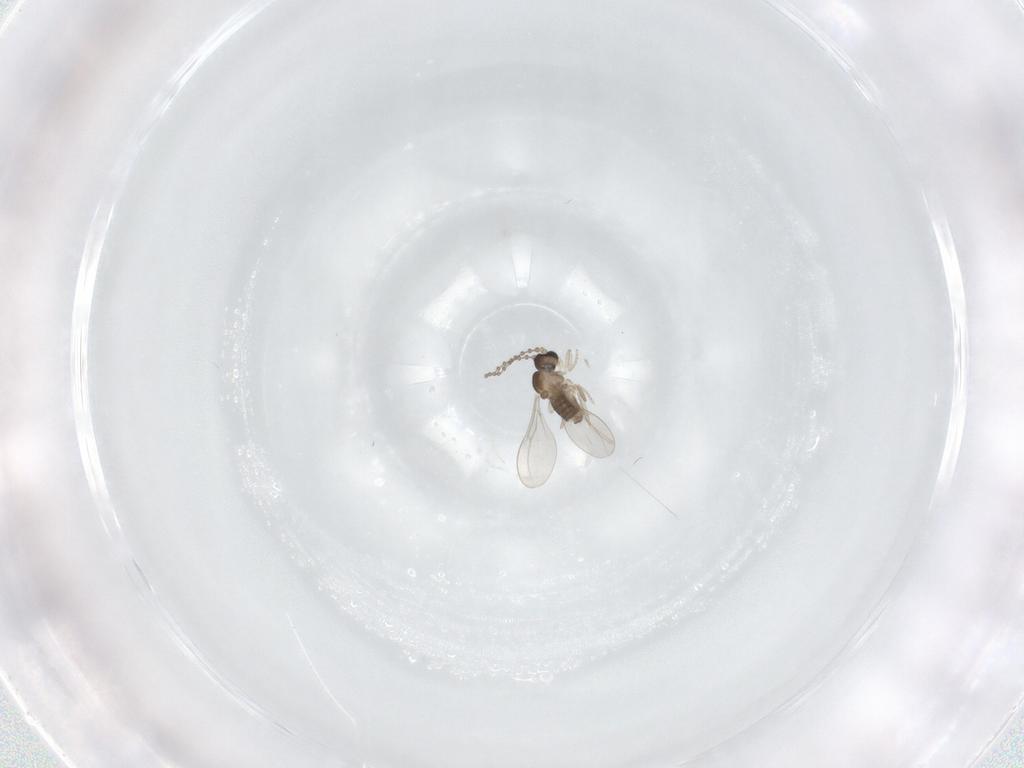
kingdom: Animalia
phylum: Arthropoda
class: Insecta
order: Diptera
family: Cecidomyiidae
